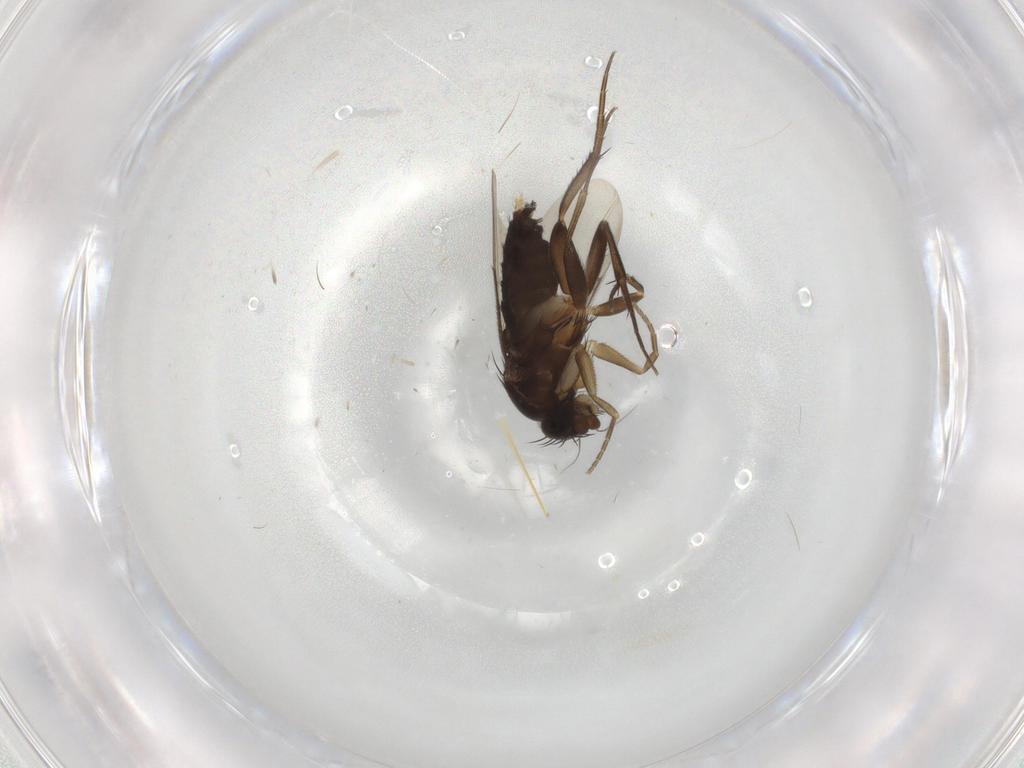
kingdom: Animalia
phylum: Arthropoda
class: Insecta
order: Diptera
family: Phoridae
